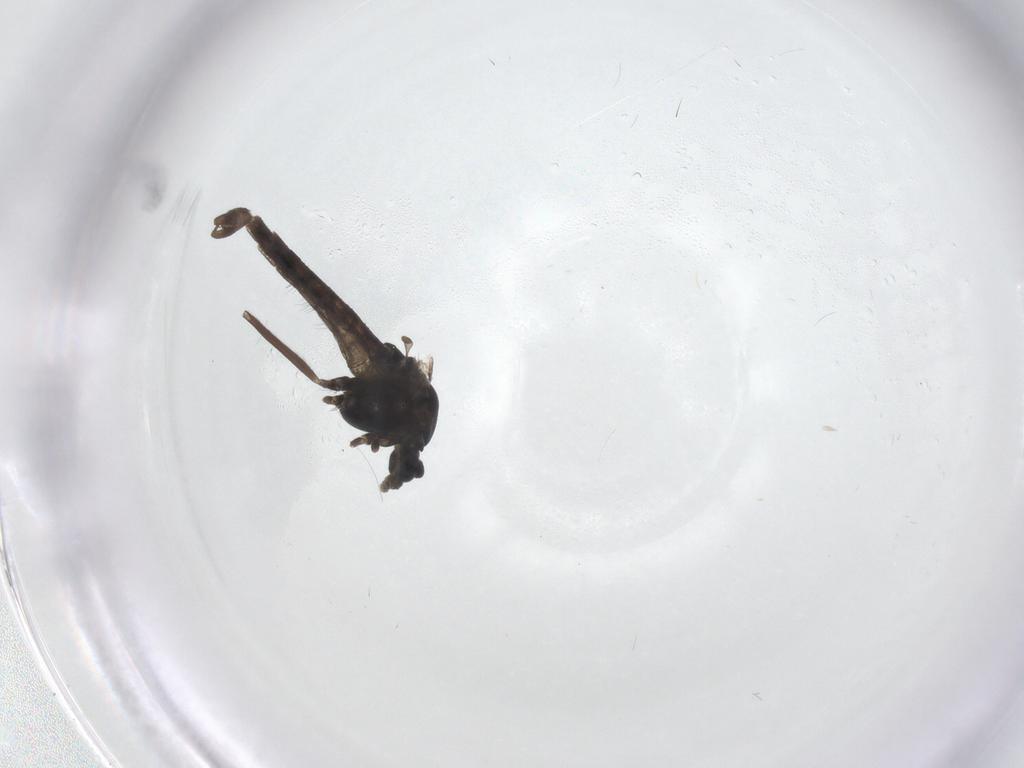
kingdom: Animalia
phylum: Arthropoda
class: Insecta
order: Diptera
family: Chironomidae
